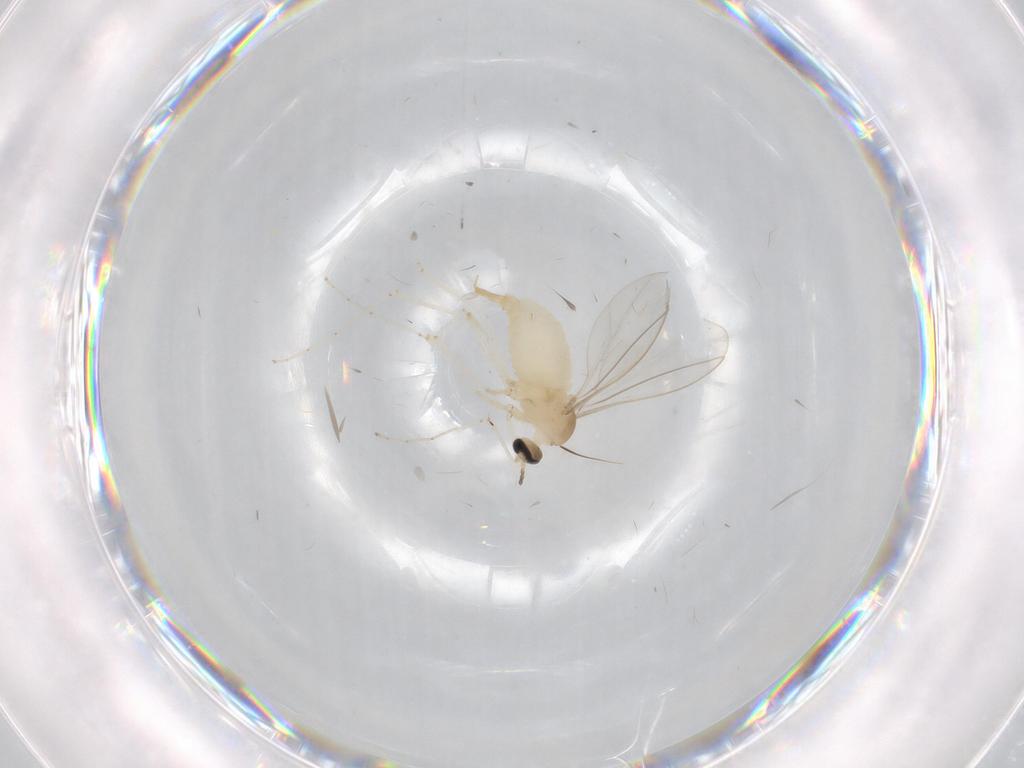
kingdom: Animalia
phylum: Arthropoda
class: Insecta
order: Diptera
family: Cecidomyiidae
